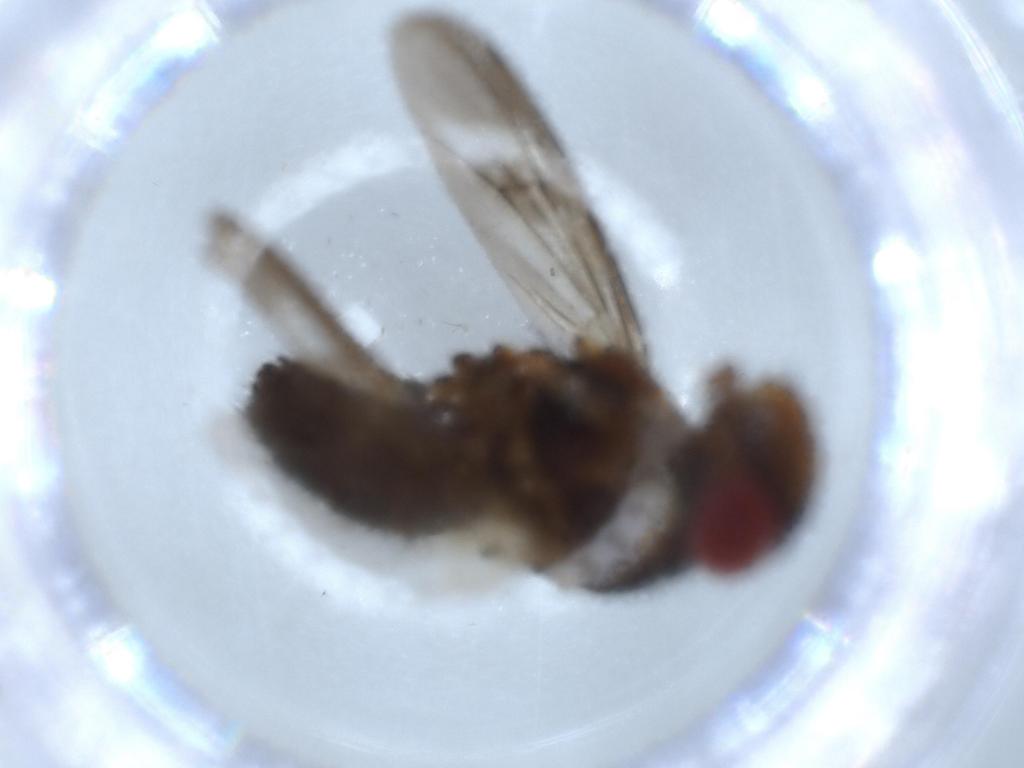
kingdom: Animalia
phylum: Arthropoda
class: Insecta
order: Diptera
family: Calliphoridae
